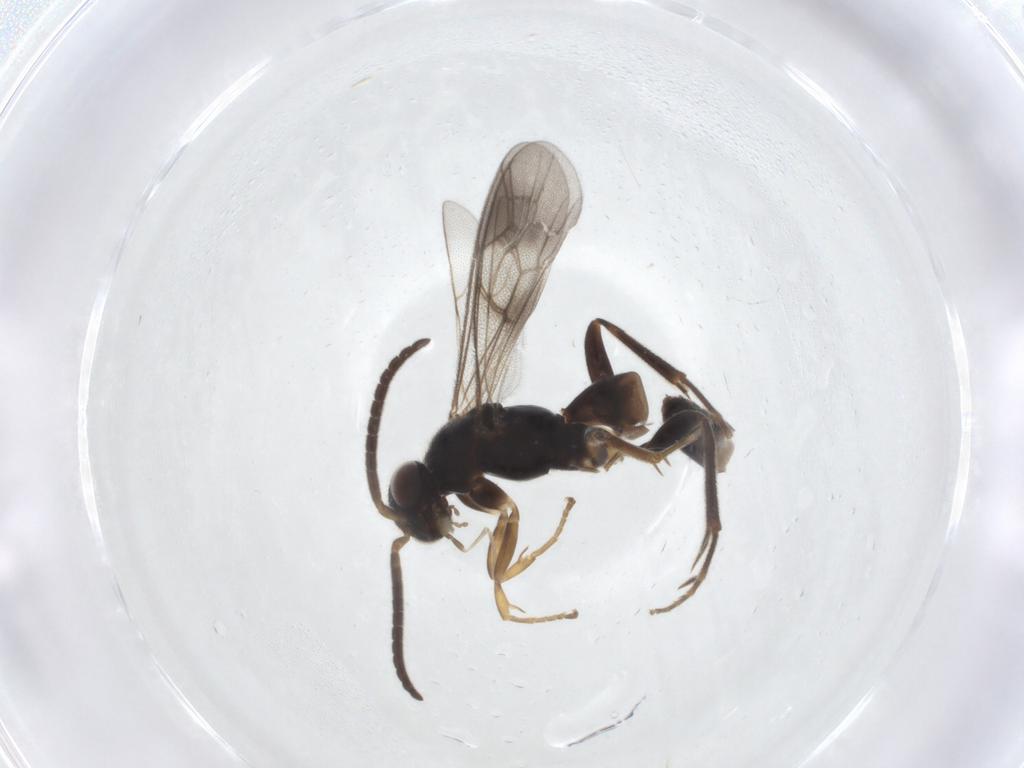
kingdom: Animalia
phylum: Arthropoda
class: Insecta
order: Hymenoptera
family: Pompilidae
